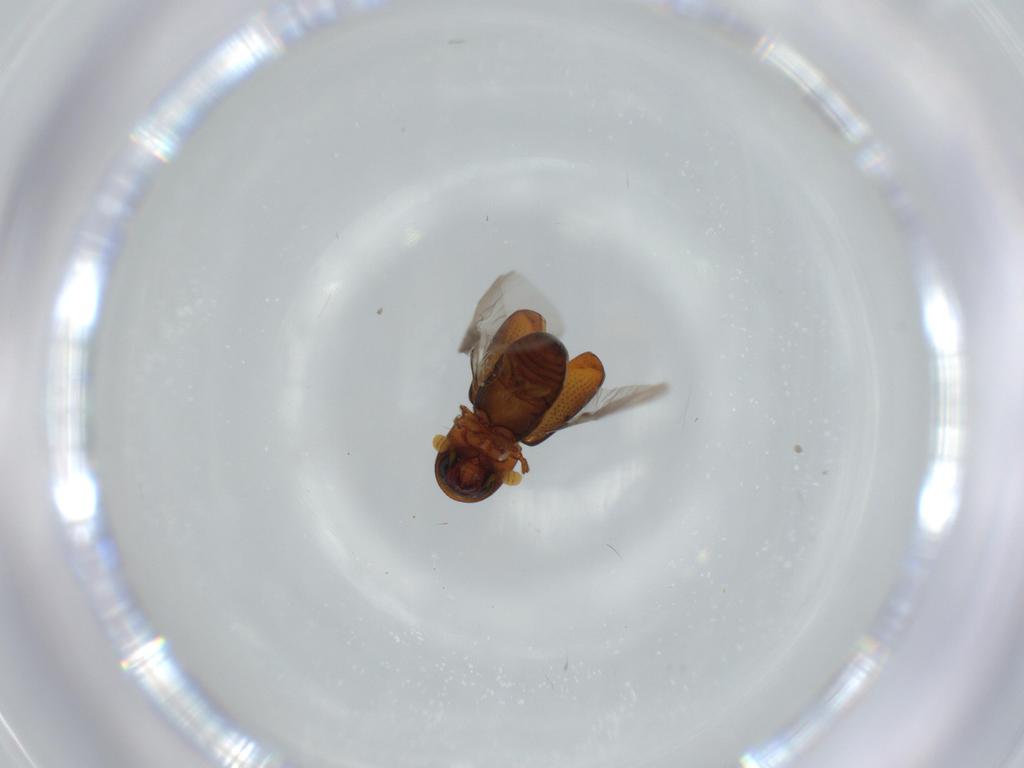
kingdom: Animalia
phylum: Arthropoda
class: Insecta
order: Coleoptera
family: Curculionidae
